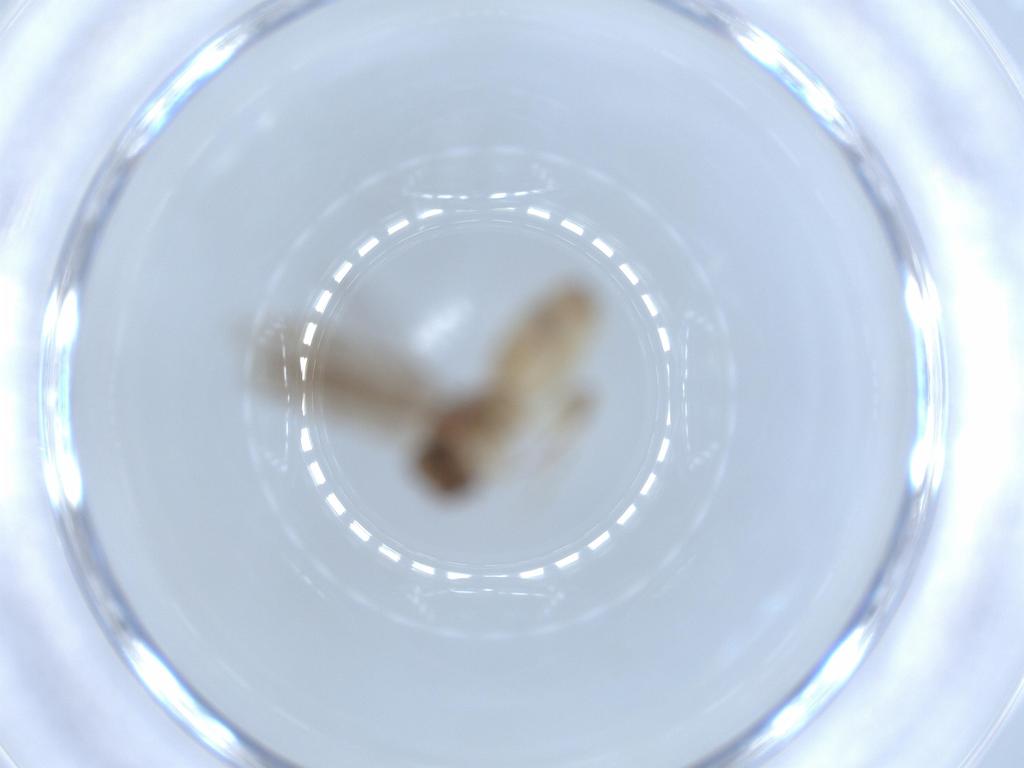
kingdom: Animalia
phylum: Arthropoda
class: Insecta
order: Psocodea
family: Lepidopsocidae
